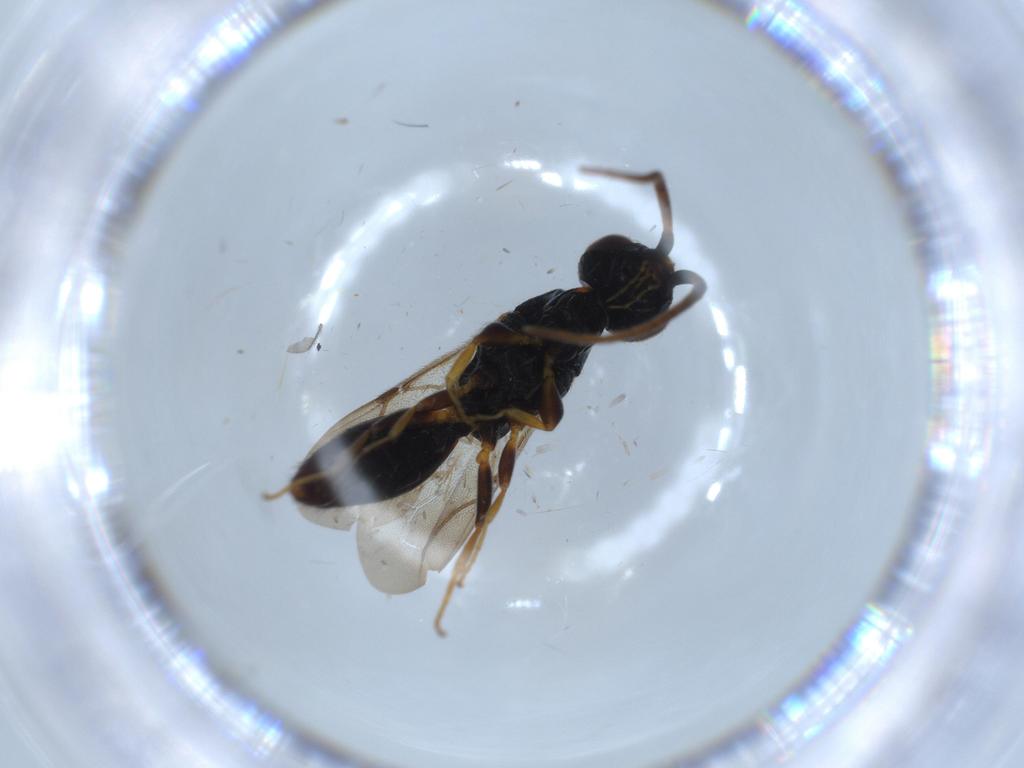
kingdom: Animalia
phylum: Arthropoda
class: Insecta
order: Hymenoptera
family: Bethylidae
